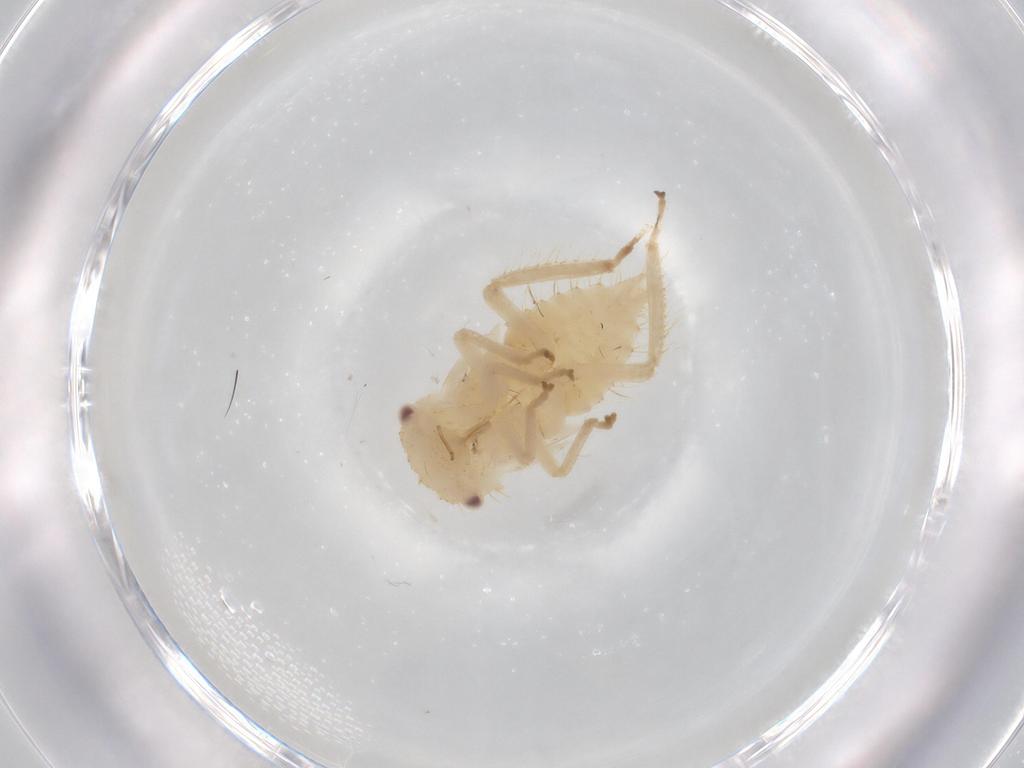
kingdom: Animalia
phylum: Arthropoda
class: Insecta
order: Hemiptera
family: Cicadellidae
